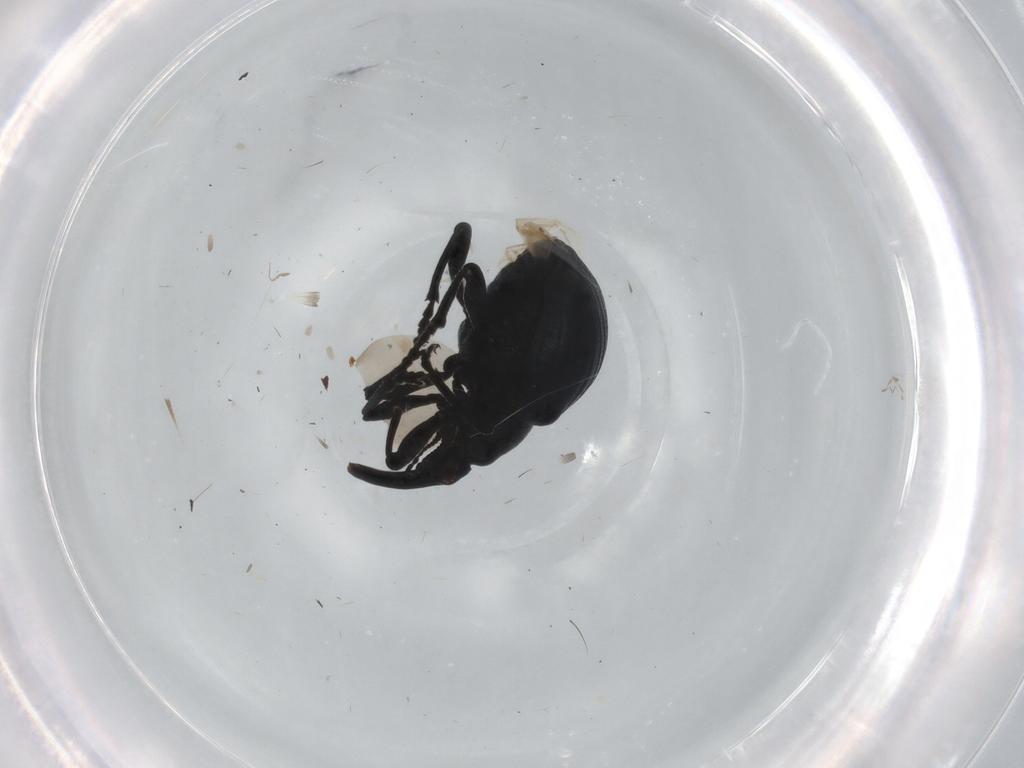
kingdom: Animalia
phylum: Arthropoda
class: Insecta
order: Coleoptera
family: Apionidae
